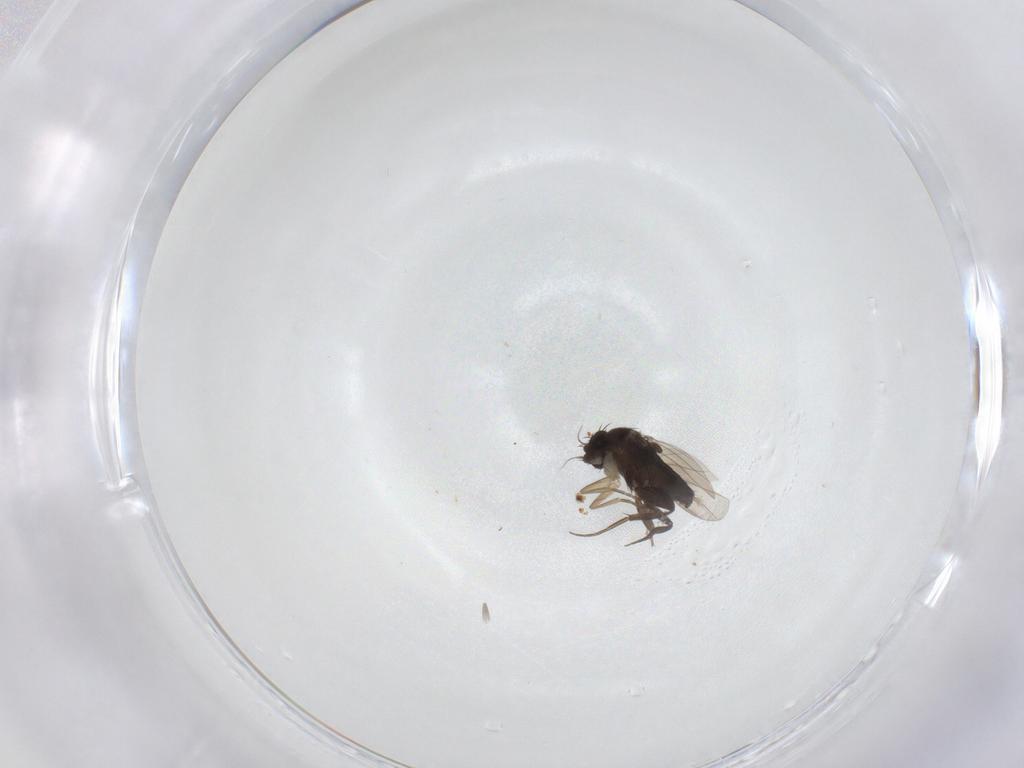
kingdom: Animalia
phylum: Arthropoda
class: Insecta
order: Diptera
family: Phoridae
